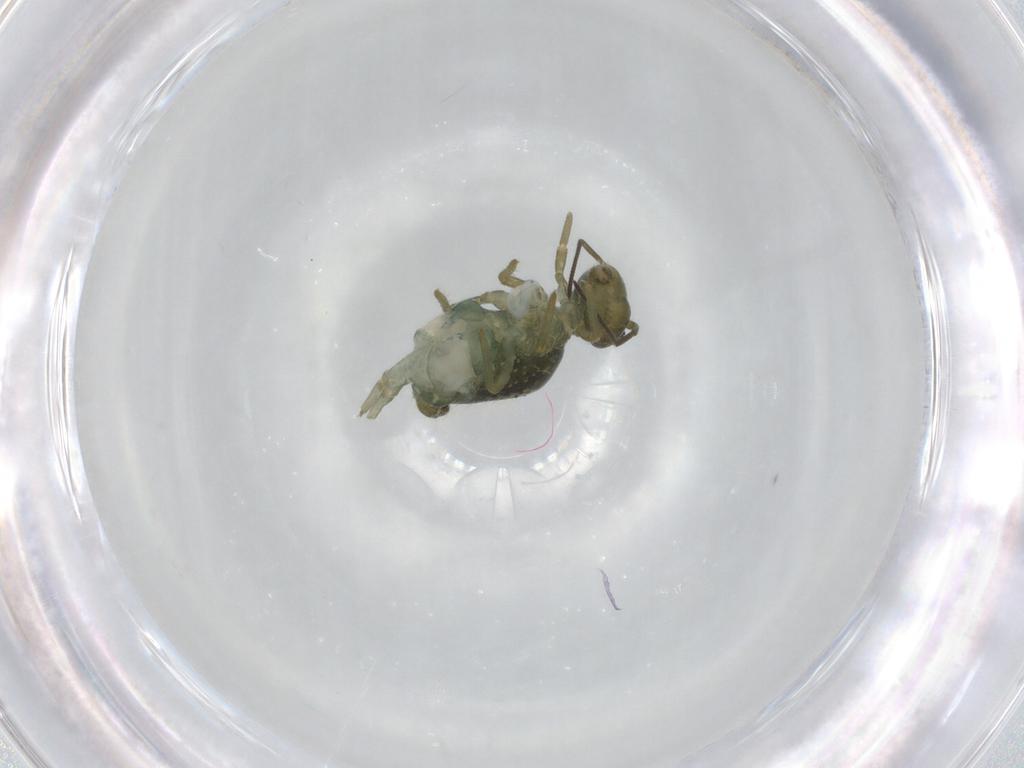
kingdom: Animalia
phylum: Arthropoda
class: Collembola
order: Symphypleona
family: Sminthuridae
